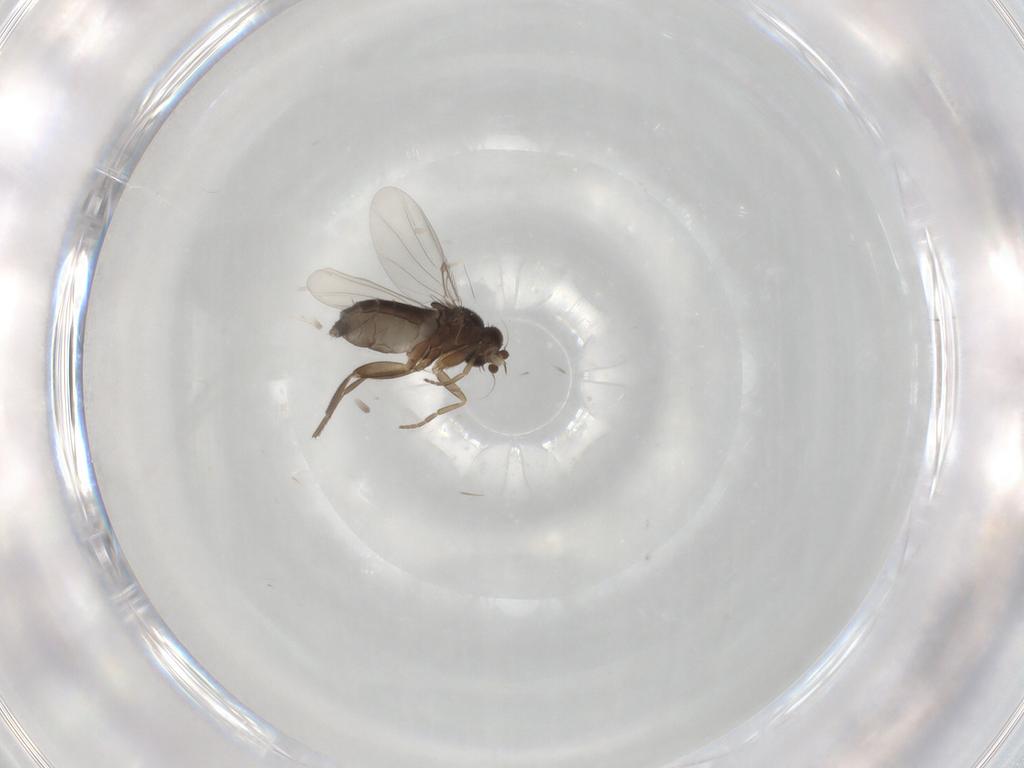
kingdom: Animalia
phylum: Arthropoda
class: Insecta
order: Diptera
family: Phoridae
